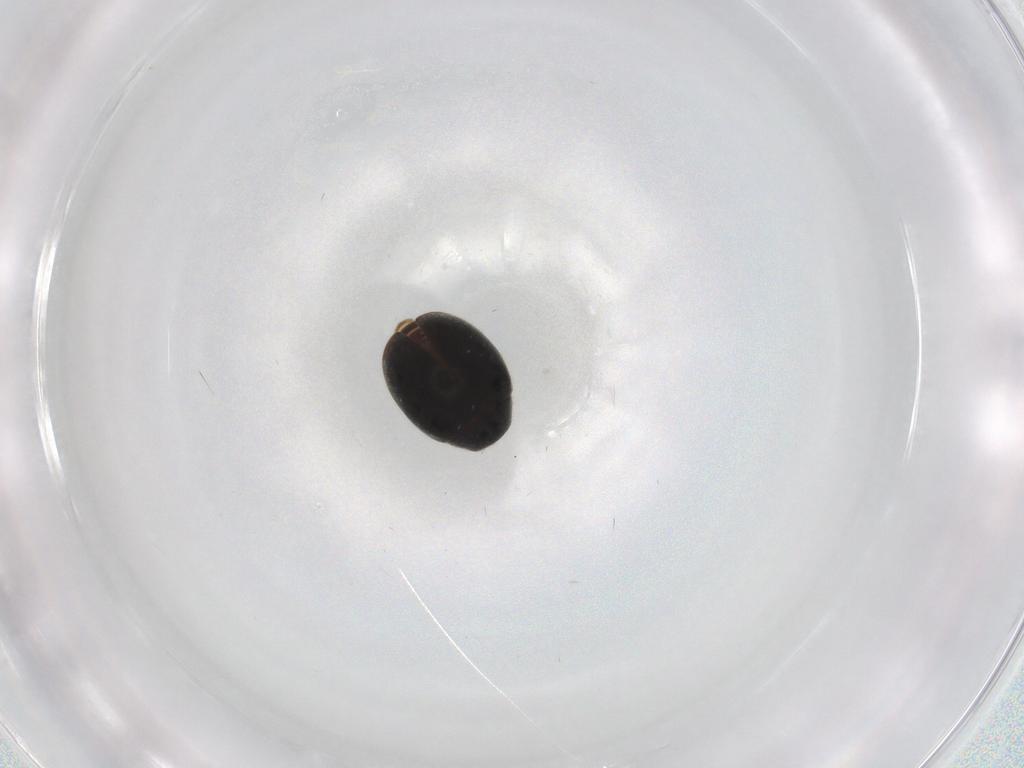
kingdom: Animalia
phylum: Arthropoda
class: Insecta
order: Coleoptera
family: Coccinellidae
